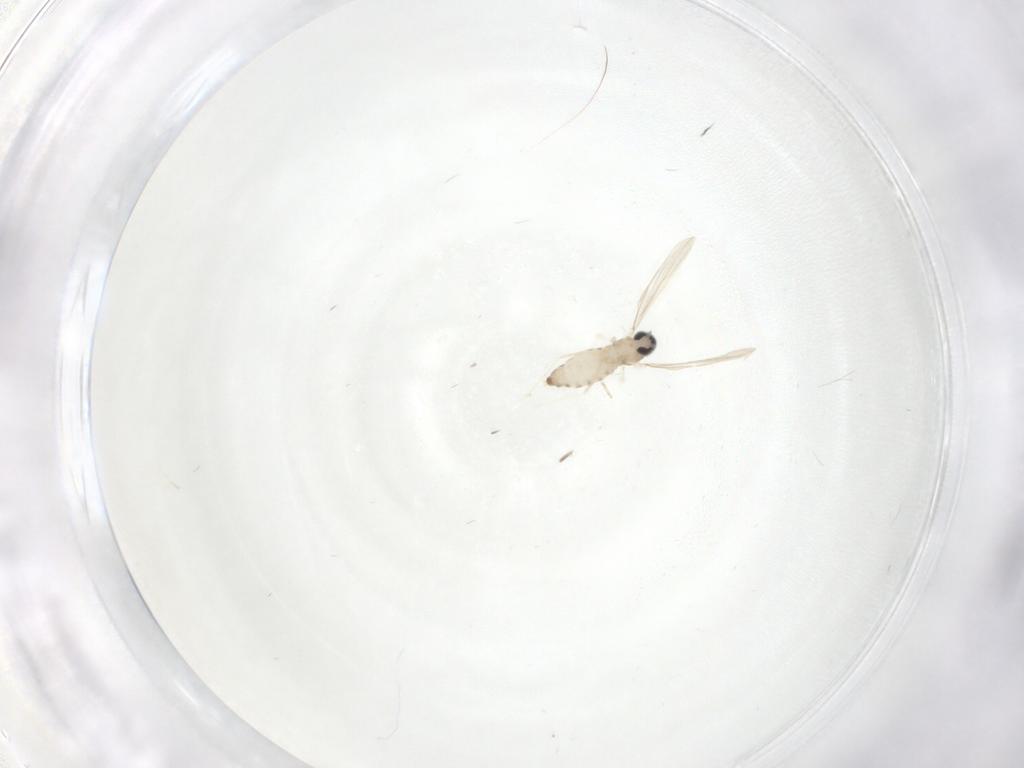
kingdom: Animalia
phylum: Arthropoda
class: Insecta
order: Diptera
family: Cecidomyiidae
